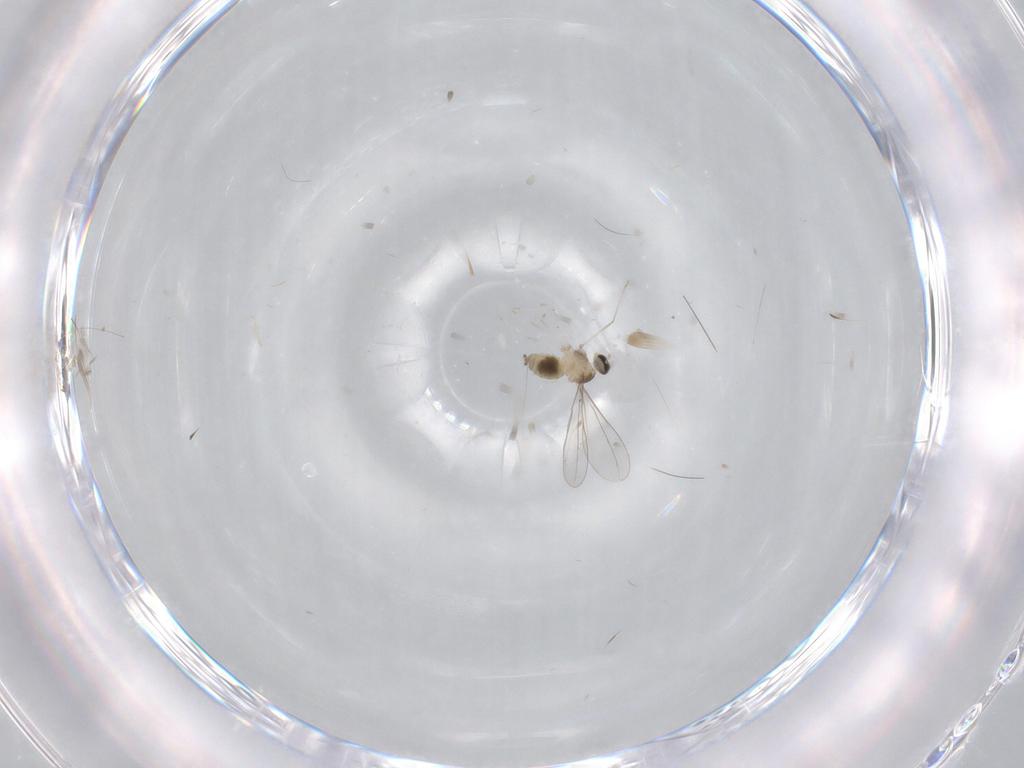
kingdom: Animalia
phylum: Arthropoda
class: Insecta
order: Diptera
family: Cecidomyiidae
